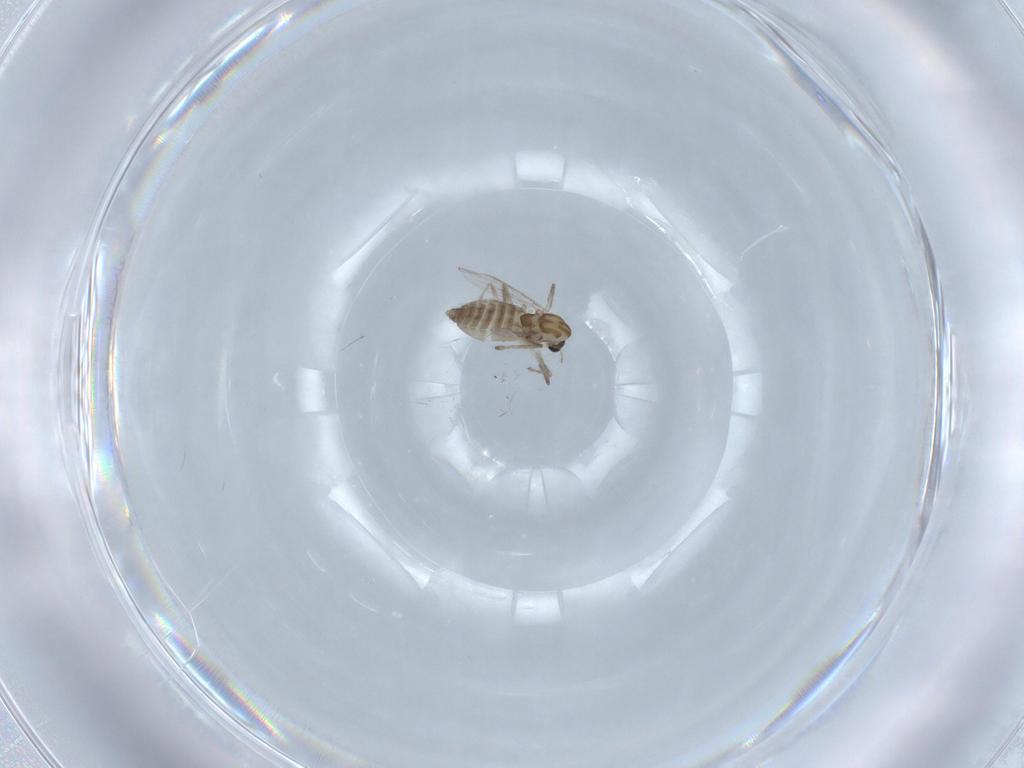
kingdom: Animalia
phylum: Arthropoda
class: Insecta
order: Diptera
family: Chironomidae
